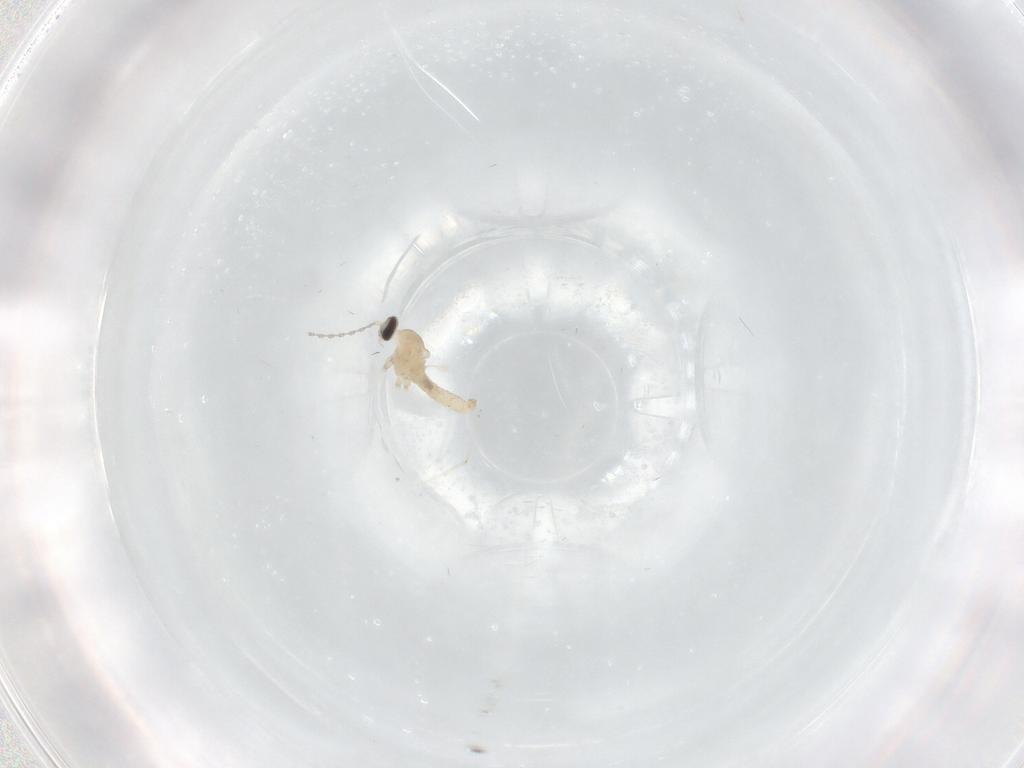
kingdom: Animalia
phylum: Arthropoda
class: Insecta
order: Diptera
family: Cecidomyiidae
